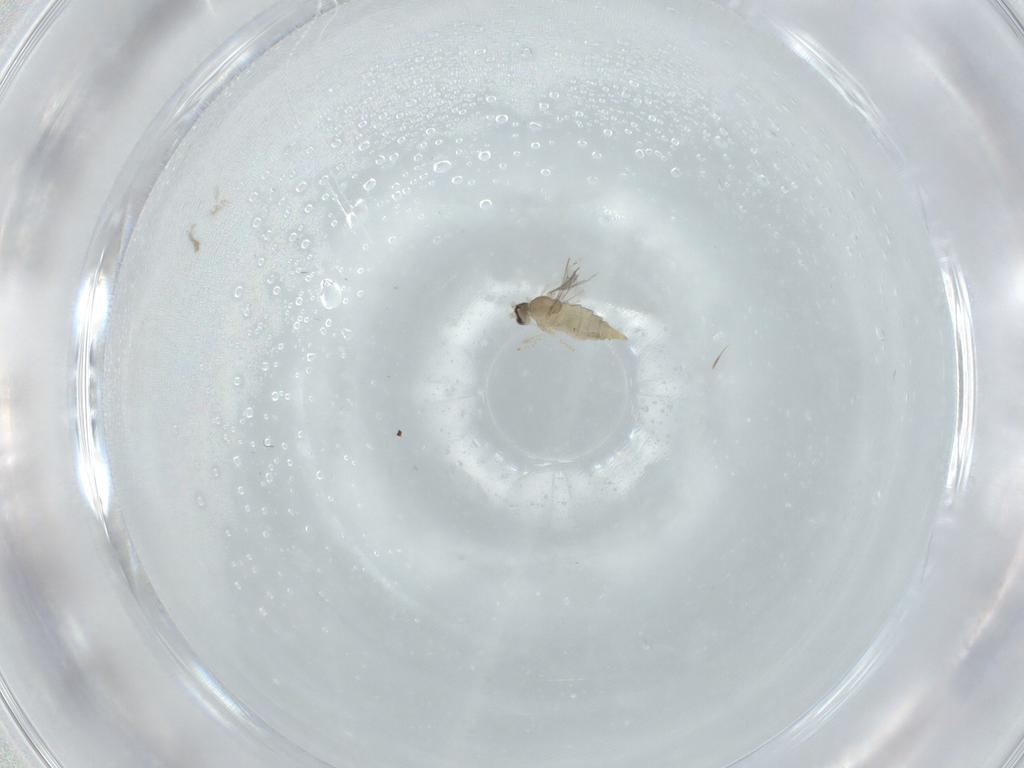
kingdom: Animalia
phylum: Arthropoda
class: Insecta
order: Diptera
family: Cecidomyiidae
